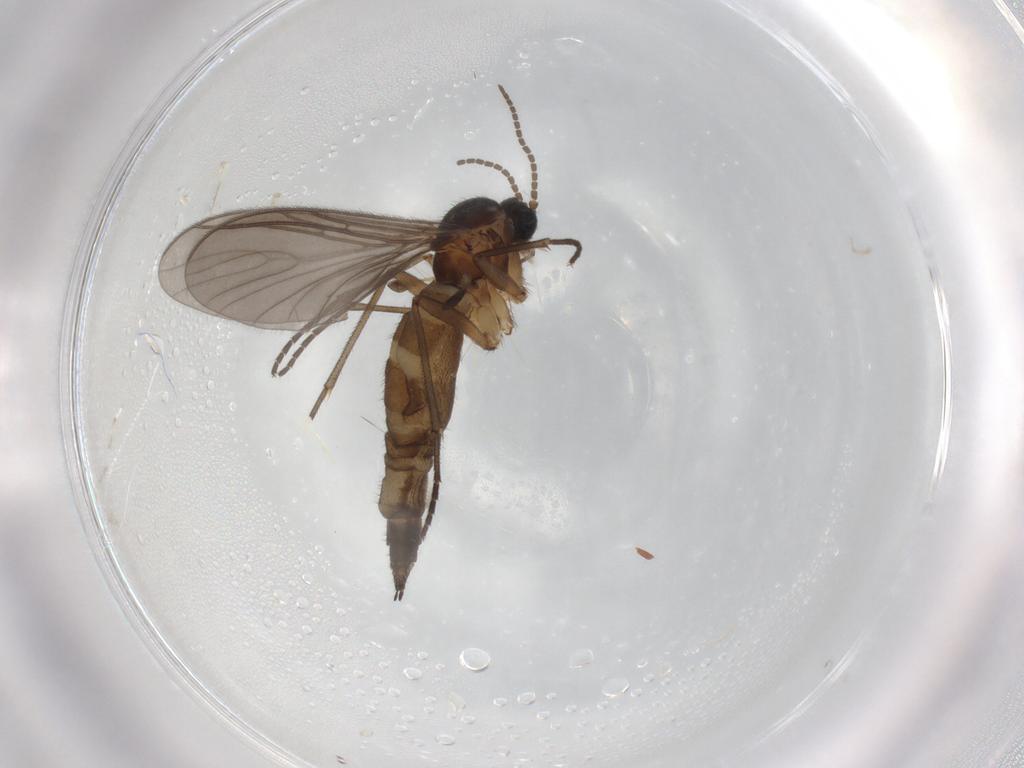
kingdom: Animalia
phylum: Arthropoda
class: Insecta
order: Diptera
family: Sciaridae
